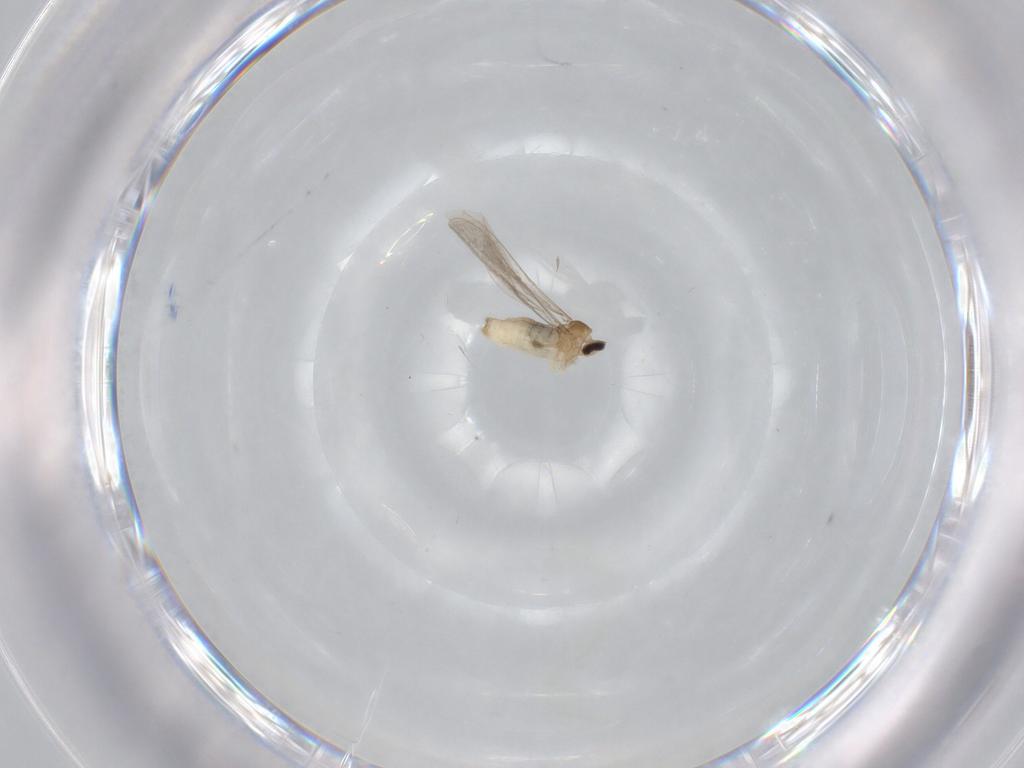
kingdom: Animalia
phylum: Arthropoda
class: Insecta
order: Diptera
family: Cecidomyiidae
